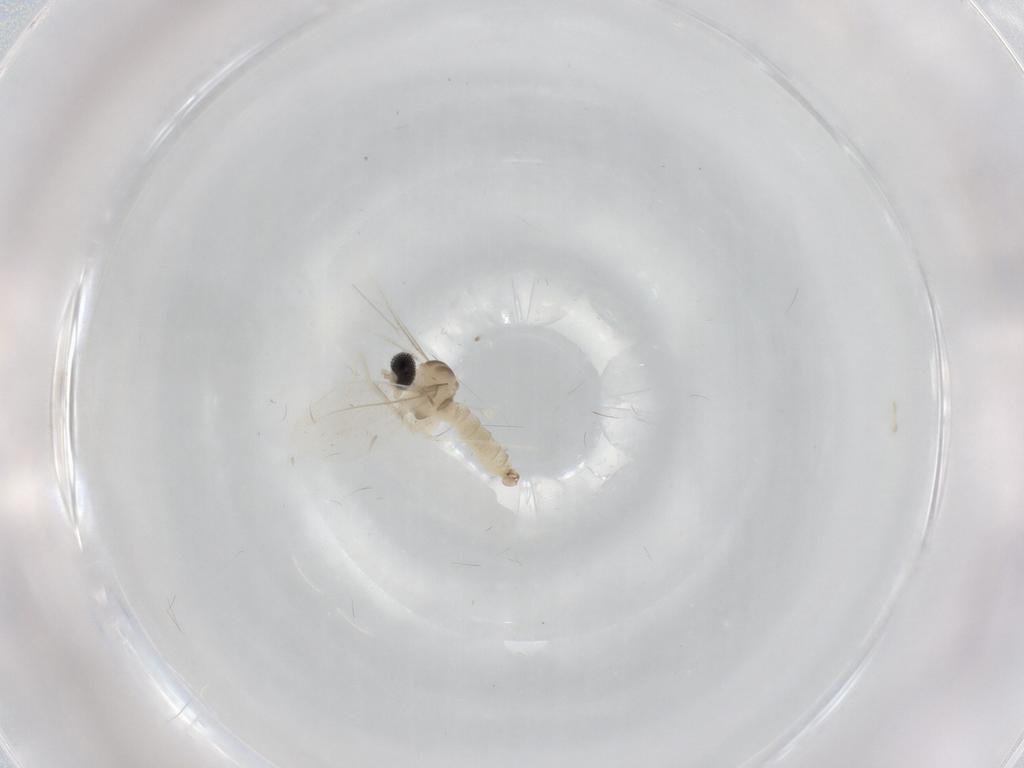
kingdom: Animalia
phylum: Arthropoda
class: Insecta
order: Diptera
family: Cecidomyiidae
